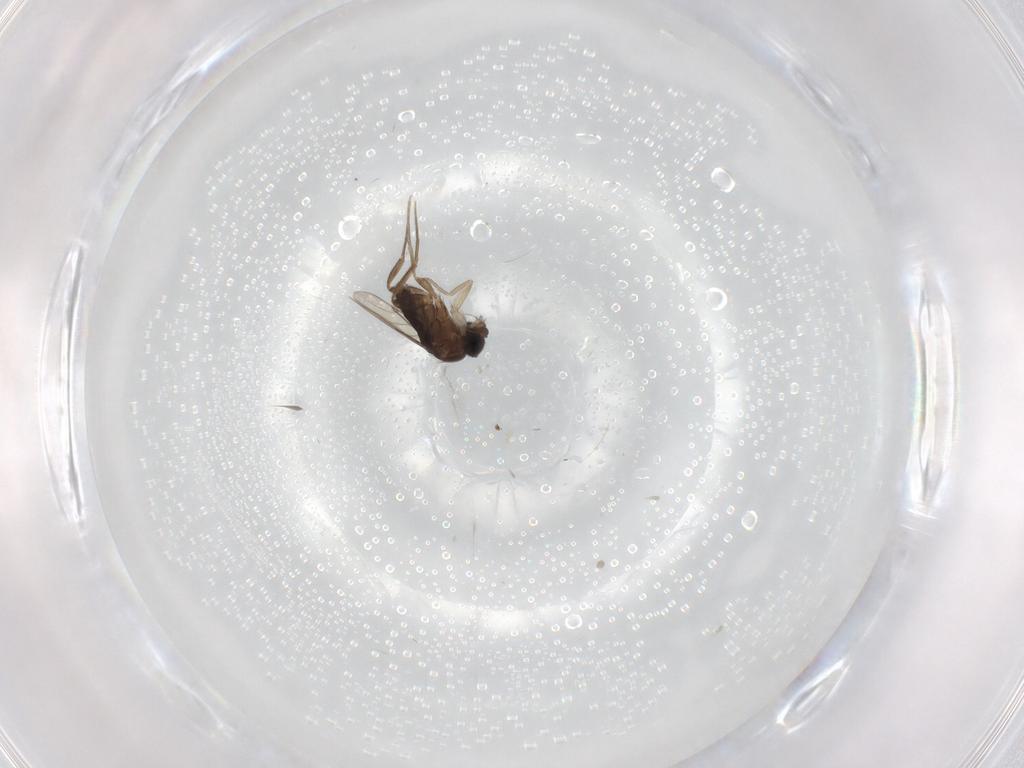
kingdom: Animalia
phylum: Arthropoda
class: Insecta
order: Diptera
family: Phoridae
